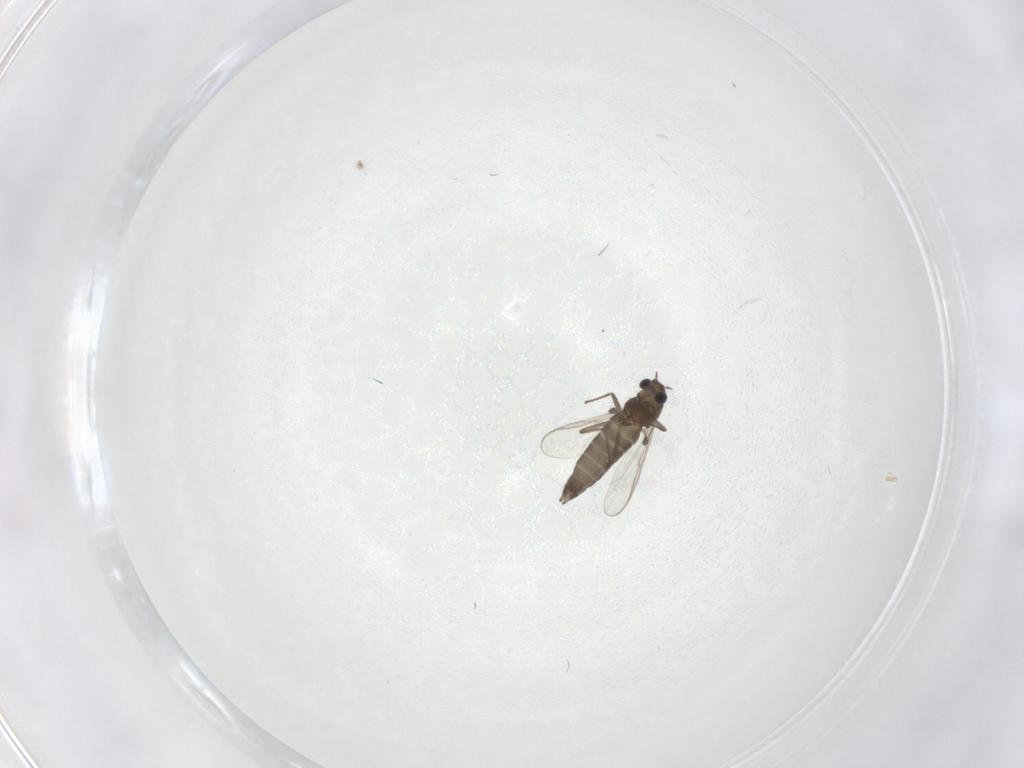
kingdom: Animalia
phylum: Arthropoda
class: Insecta
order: Diptera
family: Chironomidae
